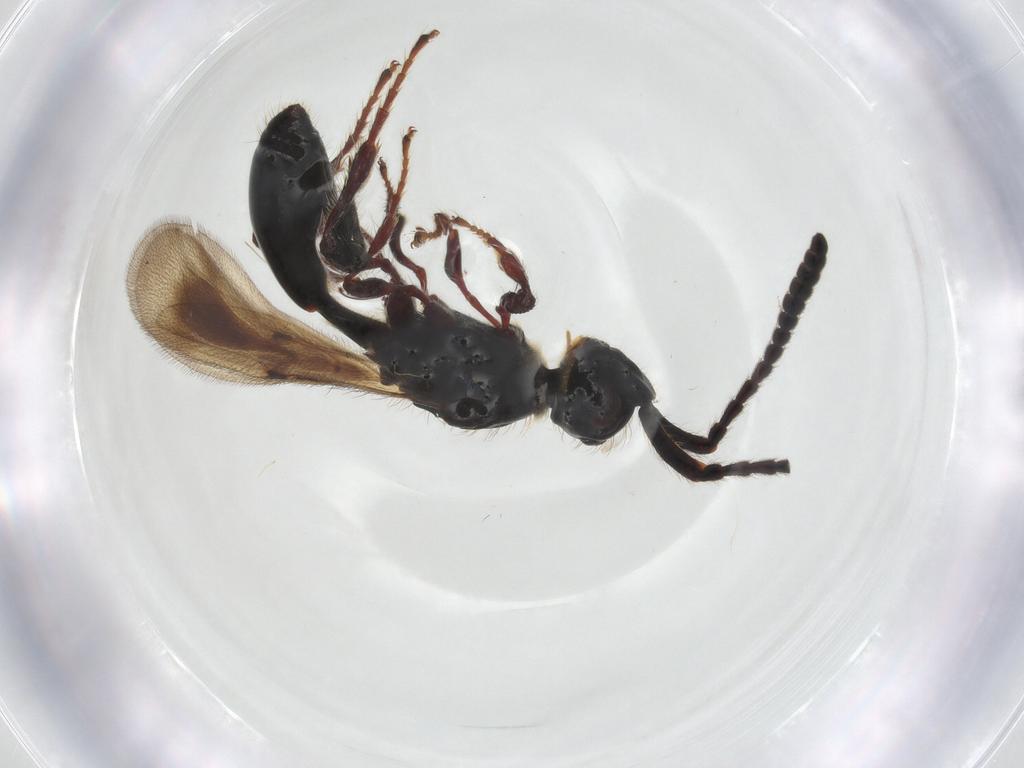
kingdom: Animalia
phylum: Arthropoda
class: Insecta
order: Hymenoptera
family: Diapriidae
